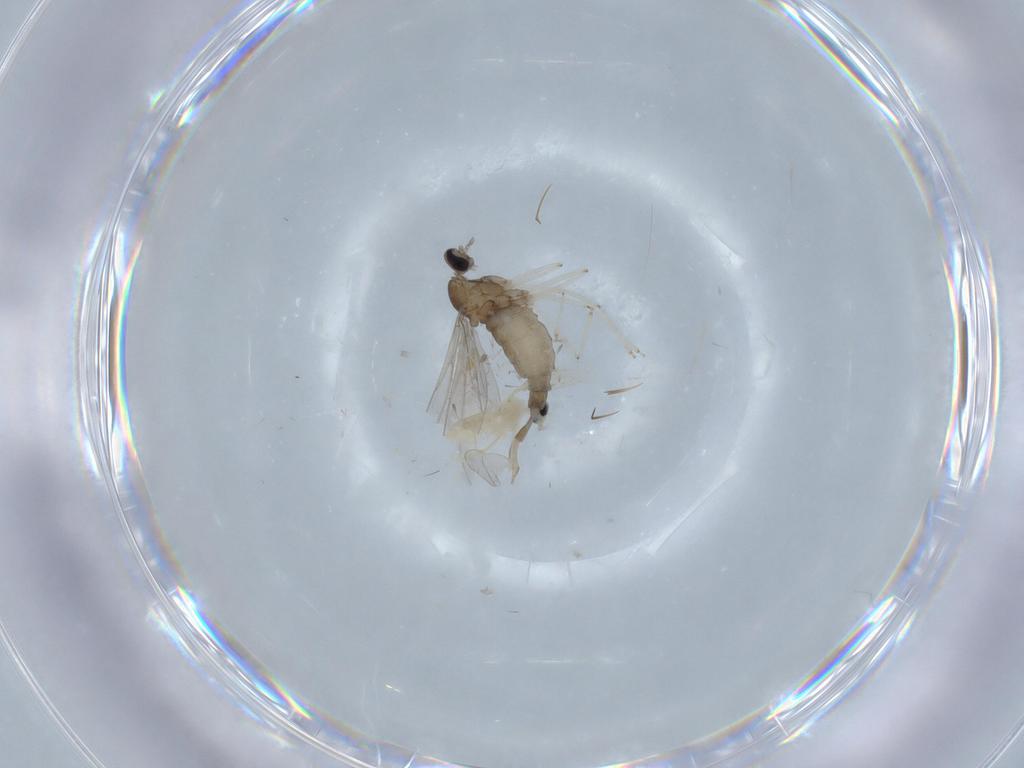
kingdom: Animalia
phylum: Arthropoda
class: Insecta
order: Diptera
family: Cecidomyiidae
